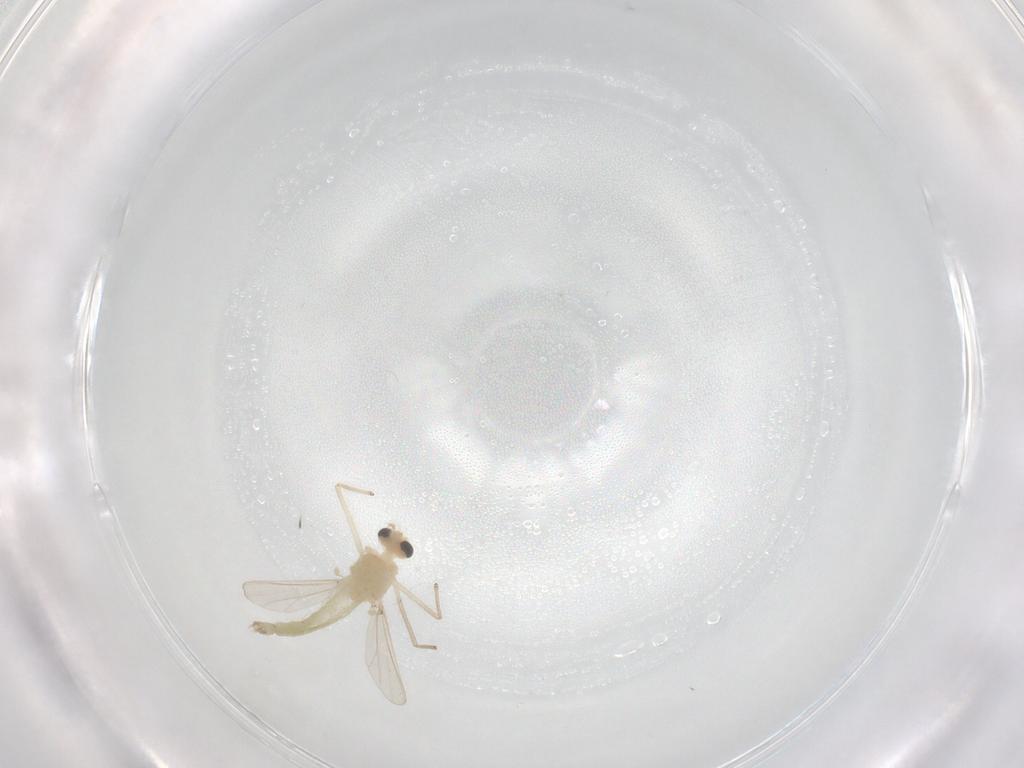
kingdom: Animalia
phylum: Arthropoda
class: Insecta
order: Diptera
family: Chironomidae
